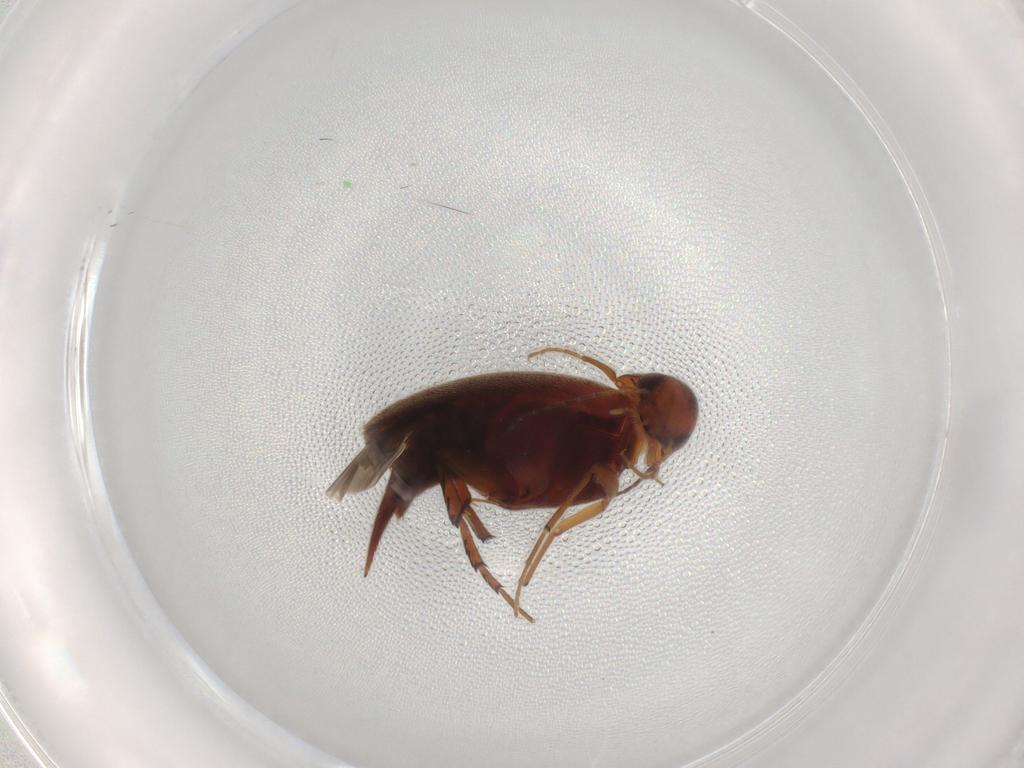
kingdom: Animalia
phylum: Arthropoda
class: Insecta
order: Coleoptera
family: Mordellidae
